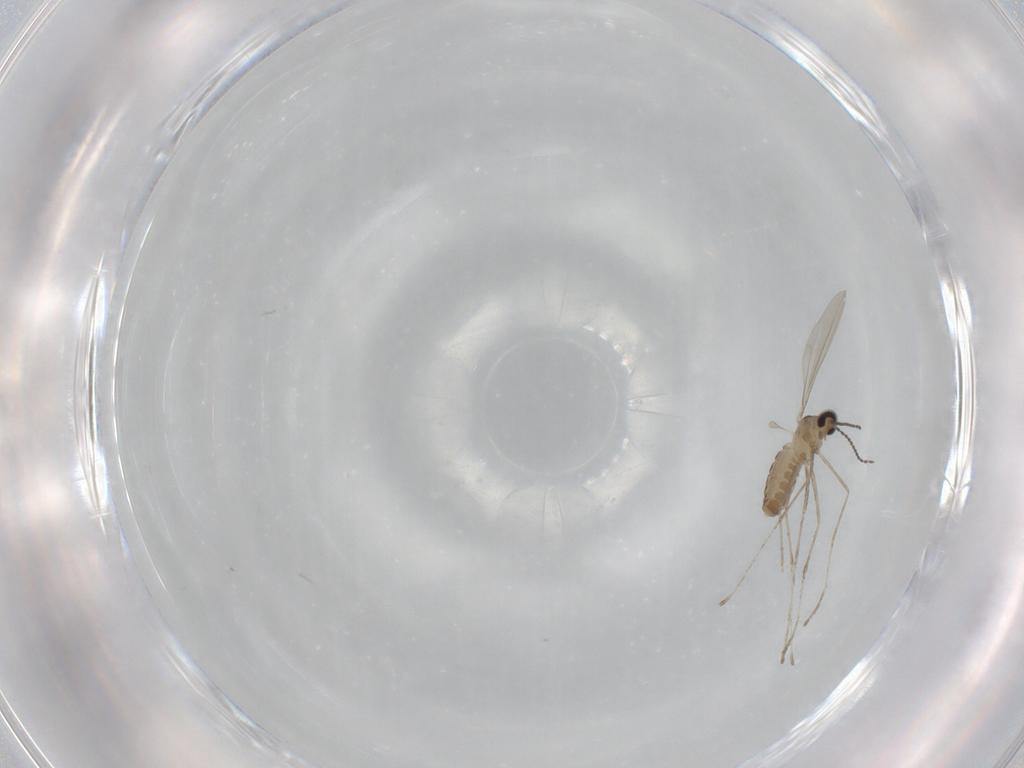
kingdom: Animalia
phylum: Arthropoda
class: Insecta
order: Diptera
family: Cecidomyiidae
